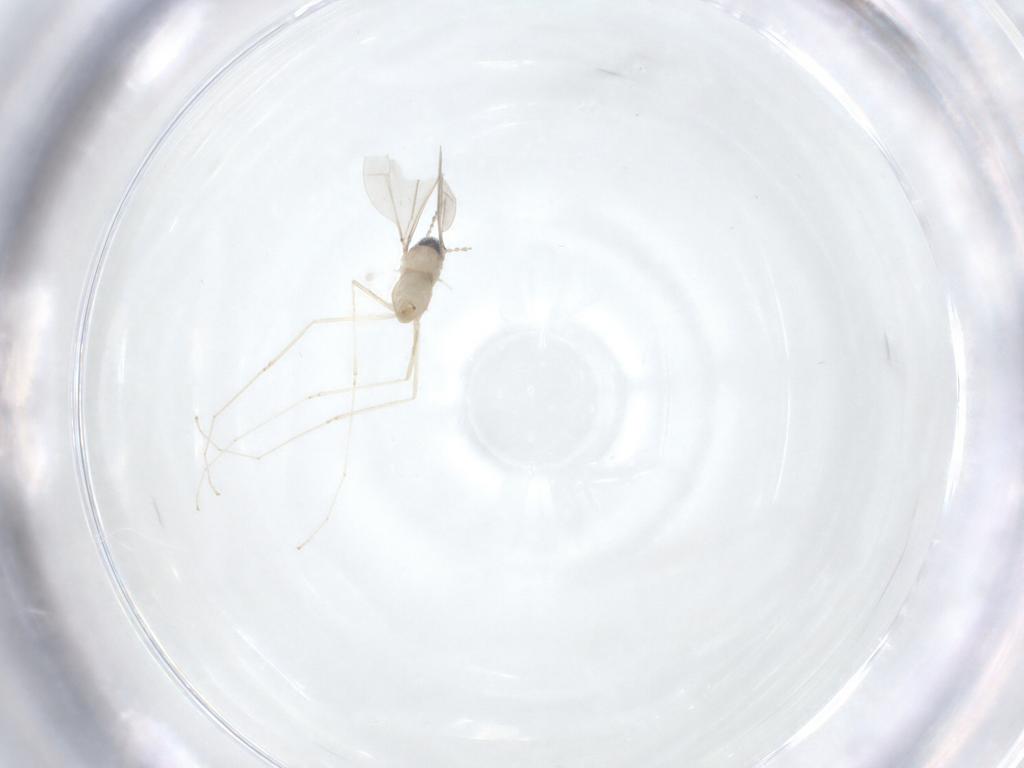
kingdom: Animalia
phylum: Arthropoda
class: Insecta
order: Diptera
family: Cecidomyiidae
